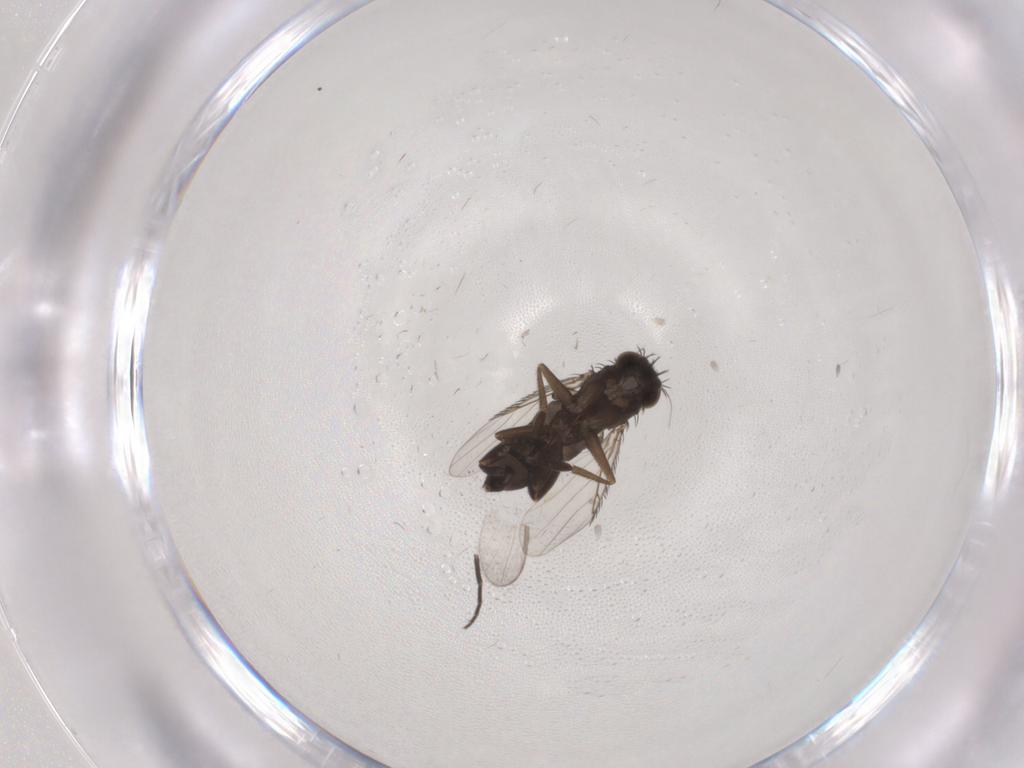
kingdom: Animalia
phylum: Arthropoda
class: Insecta
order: Diptera
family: Sciaridae
